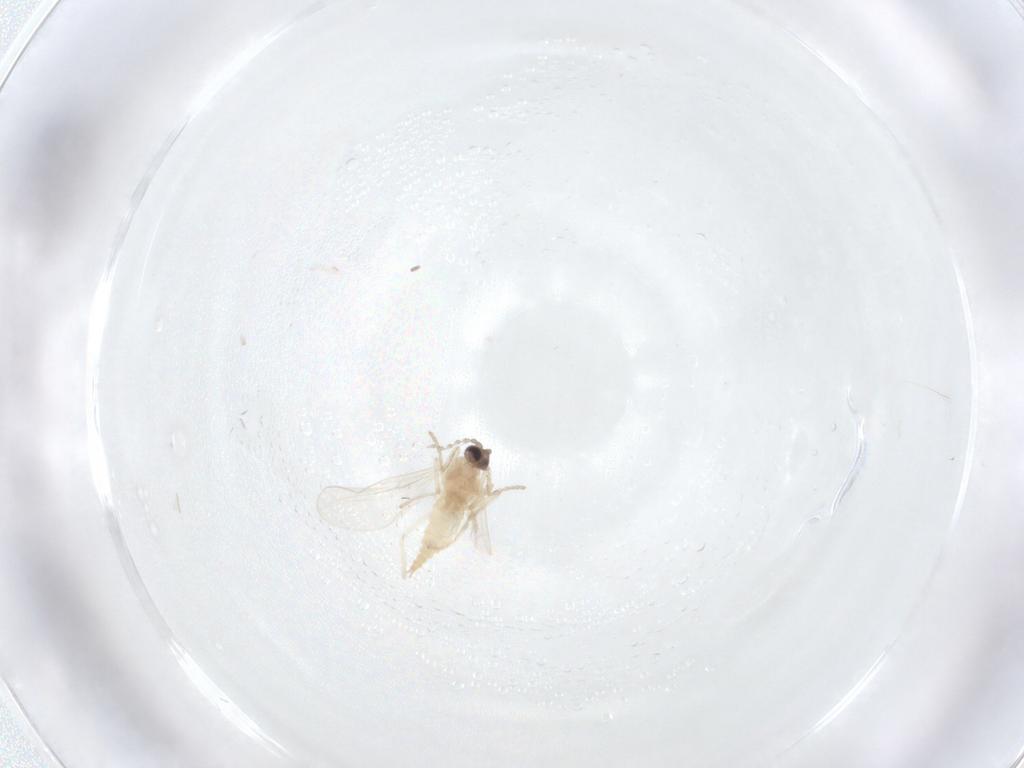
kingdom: Animalia
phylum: Arthropoda
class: Insecta
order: Diptera
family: Cecidomyiidae
